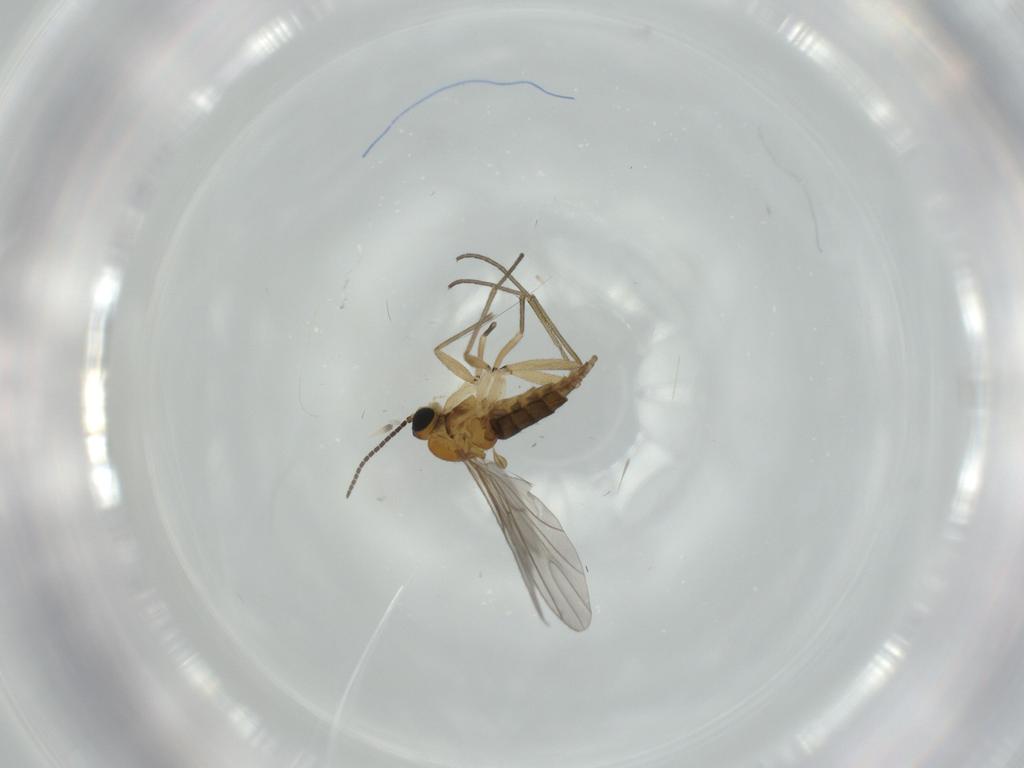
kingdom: Animalia
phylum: Arthropoda
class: Insecta
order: Diptera
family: Sciaridae
